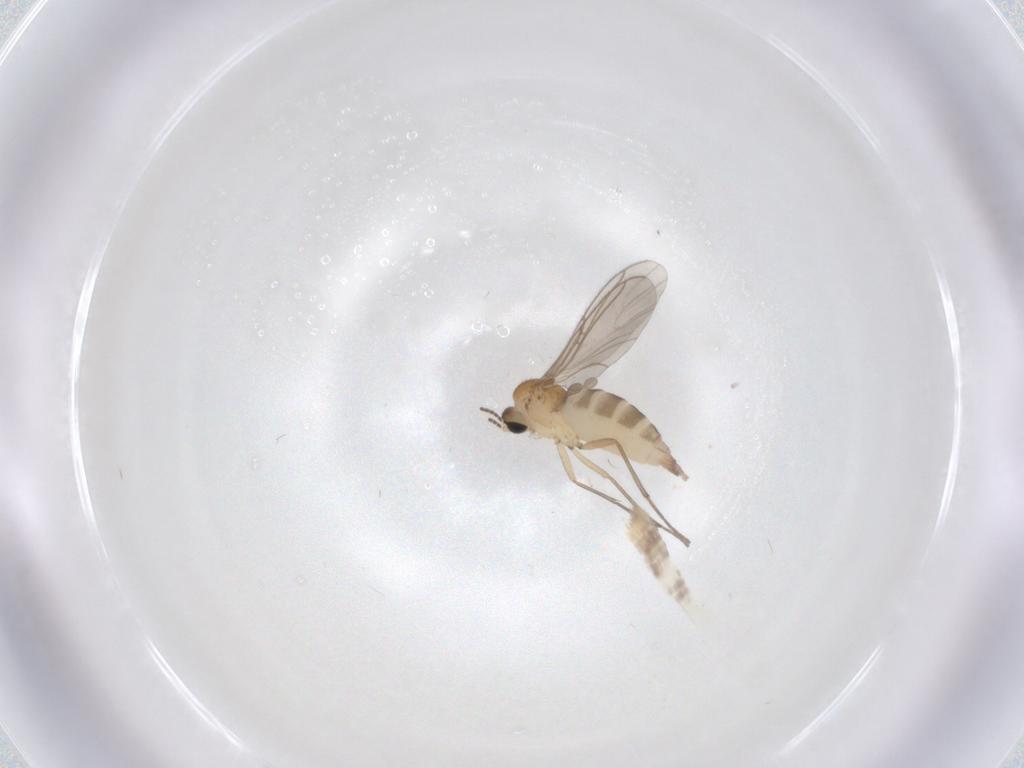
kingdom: Animalia
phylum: Arthropoda
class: Insecta
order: Diptera
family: Sciaridae
